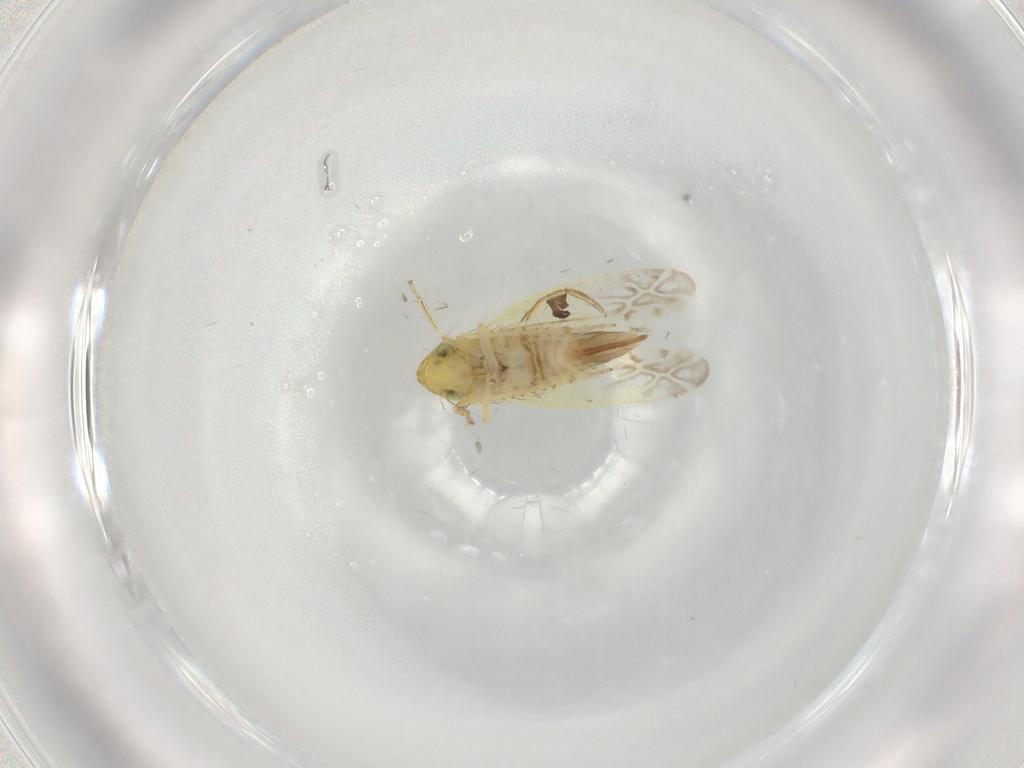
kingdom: Animalia
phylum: Arthropoda
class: Insecta
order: Hemiptera
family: Cicadellidae
